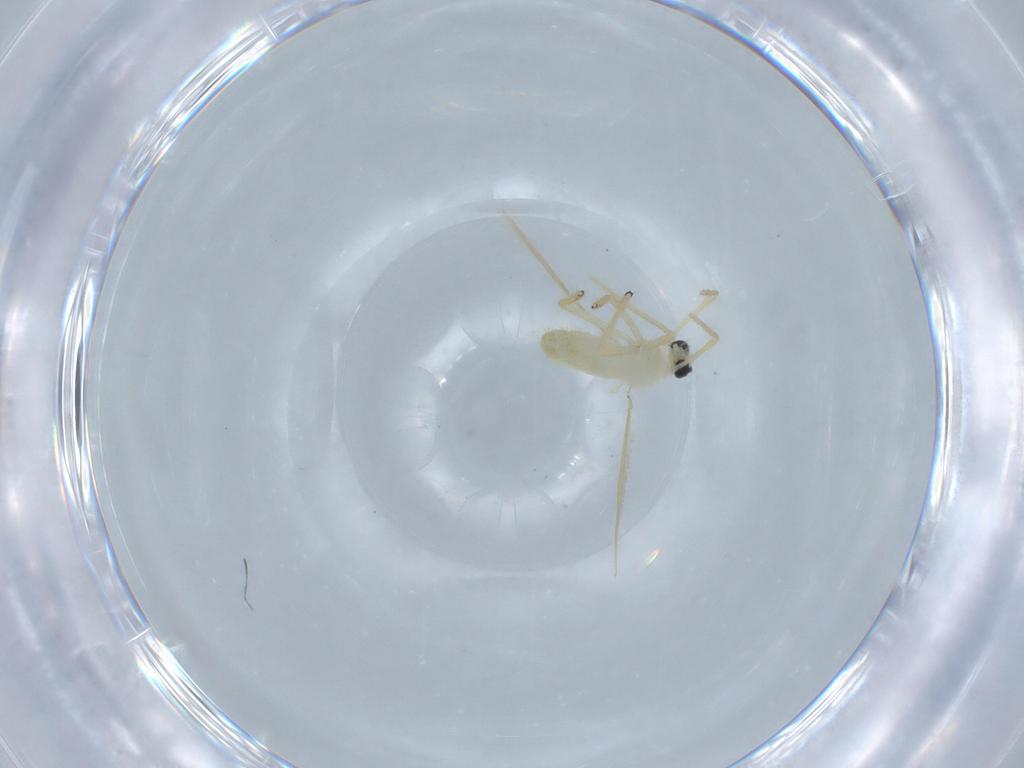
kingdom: Animalia
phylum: Arthropoda
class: Insecta
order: Diptera
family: Chironomidae
